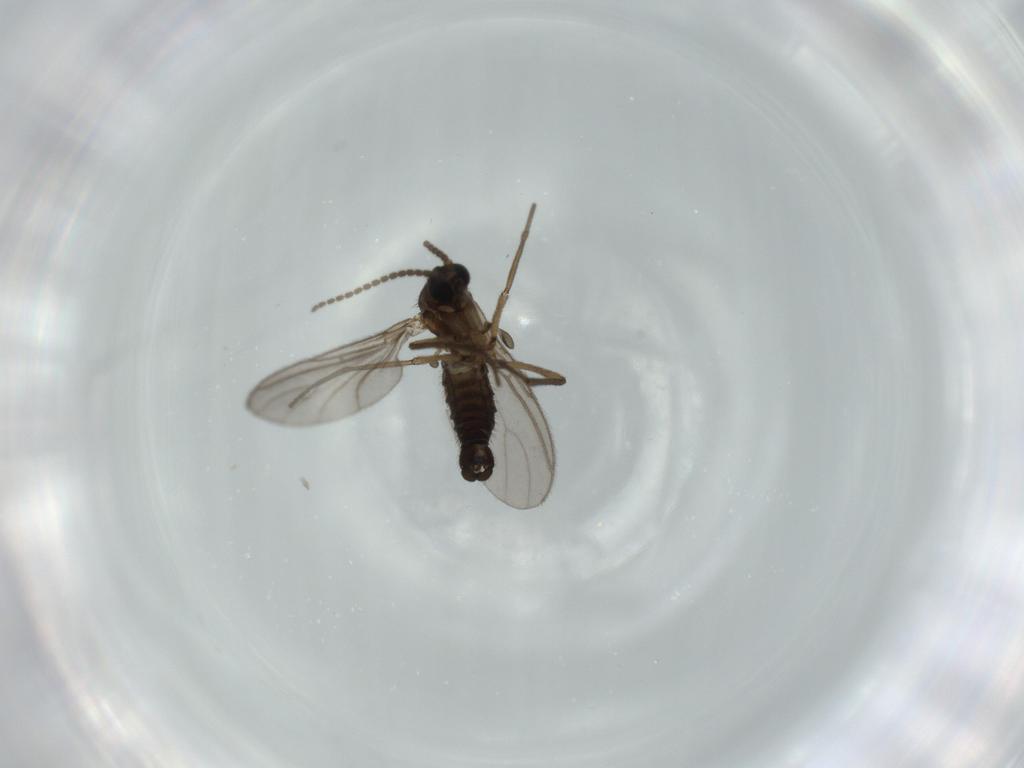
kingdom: Animalia
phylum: Arthropoda
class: Insecta
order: Diptera
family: Sciaridae
